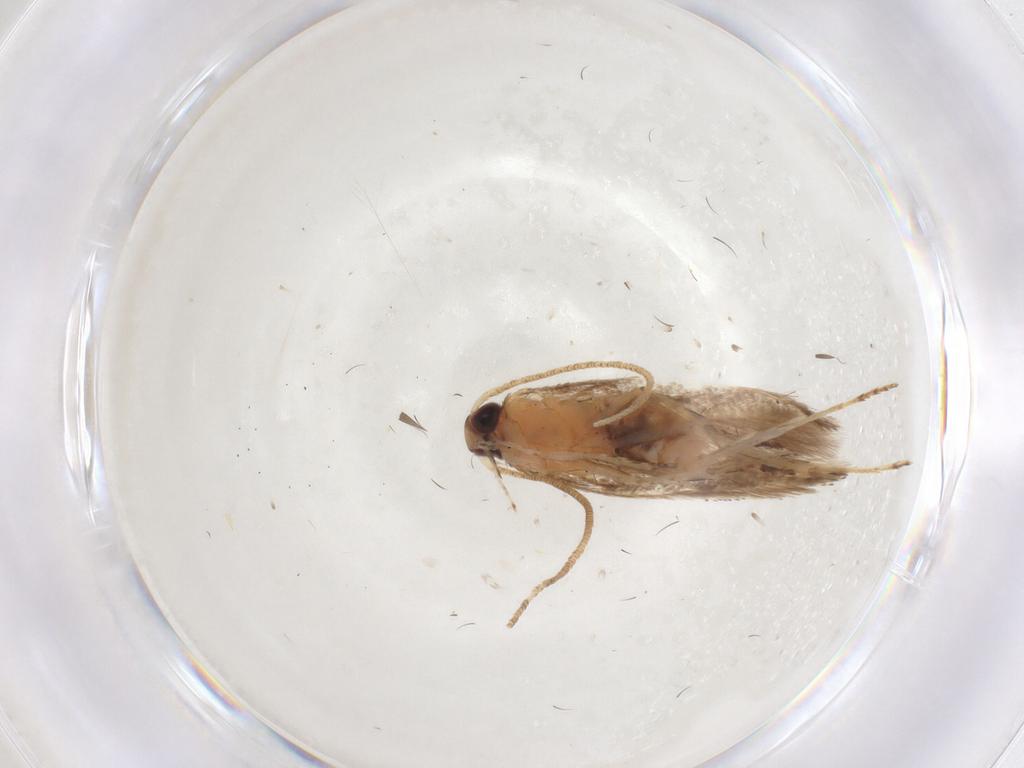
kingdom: Animalia
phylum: Arthropoda
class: Insecta
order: Lepidoptera
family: Gelechiidae
